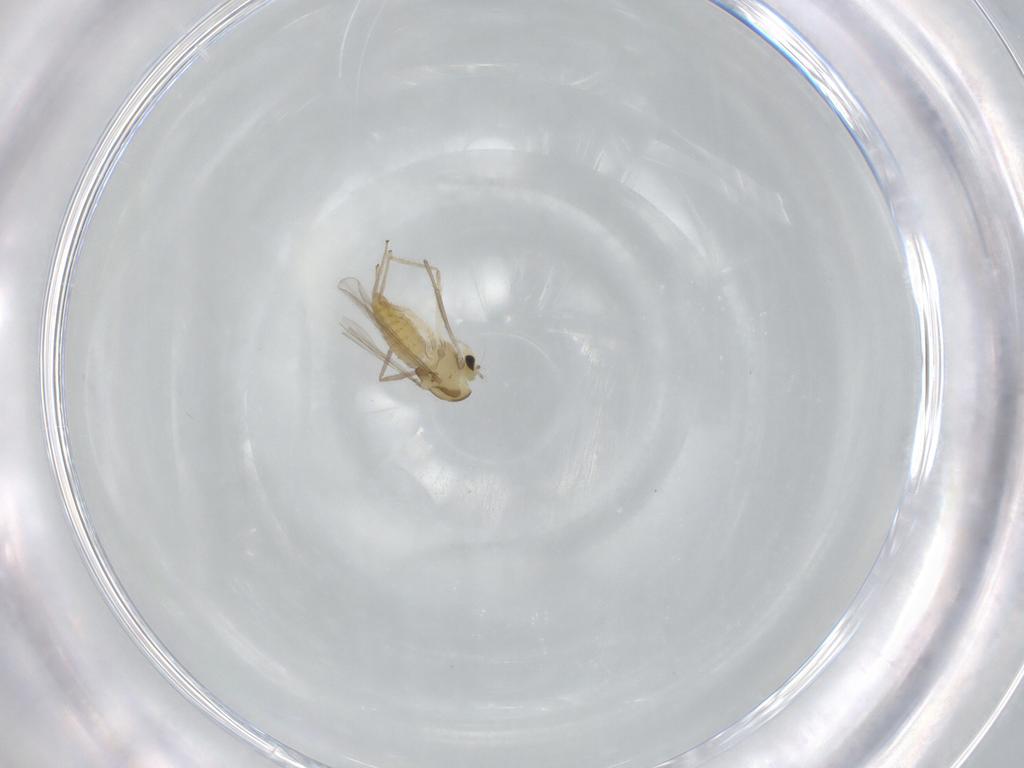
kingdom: Animalia
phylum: Arthropoda
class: Insecta
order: Diptera
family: Chironomidae
